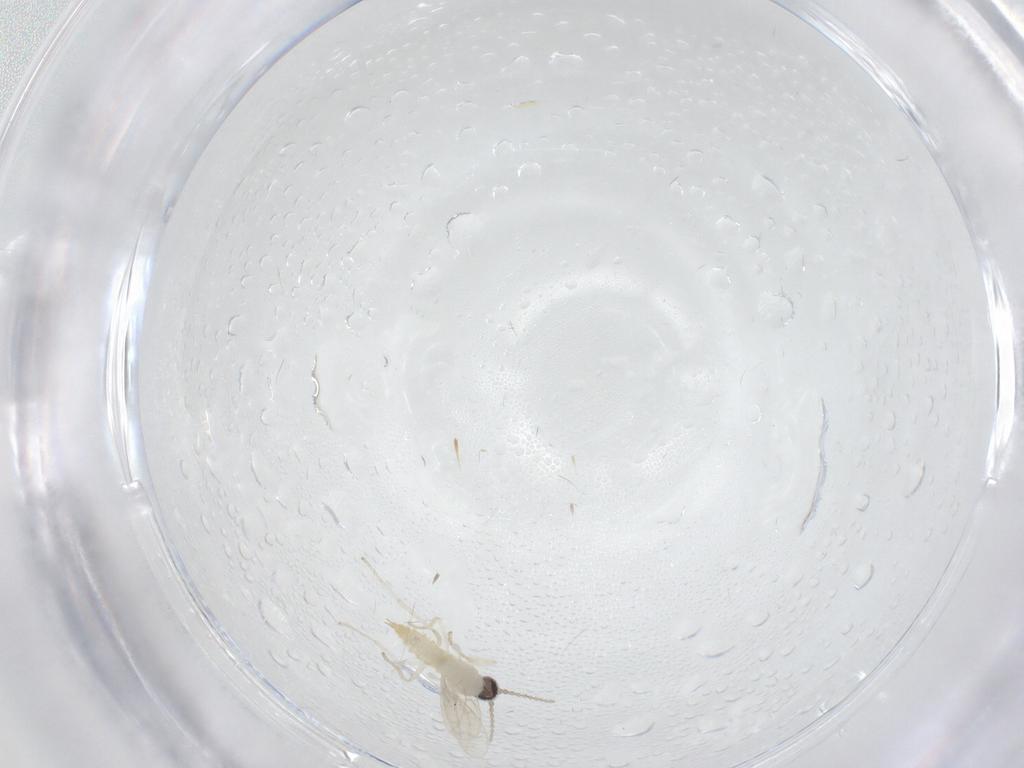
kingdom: Animalia
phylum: Arthropoda
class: Insecta
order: Diptera
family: Cecidomyiidae
